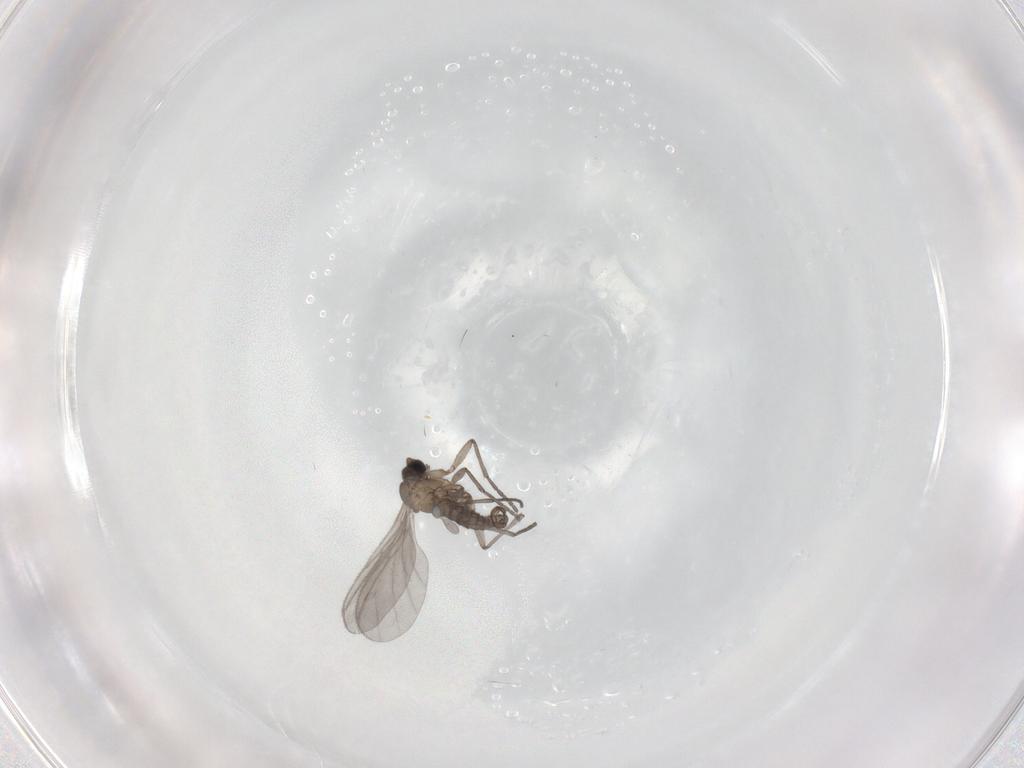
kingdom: Animalia
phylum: Arthropoda
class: Insecta
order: Diptera
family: Sciaridae
